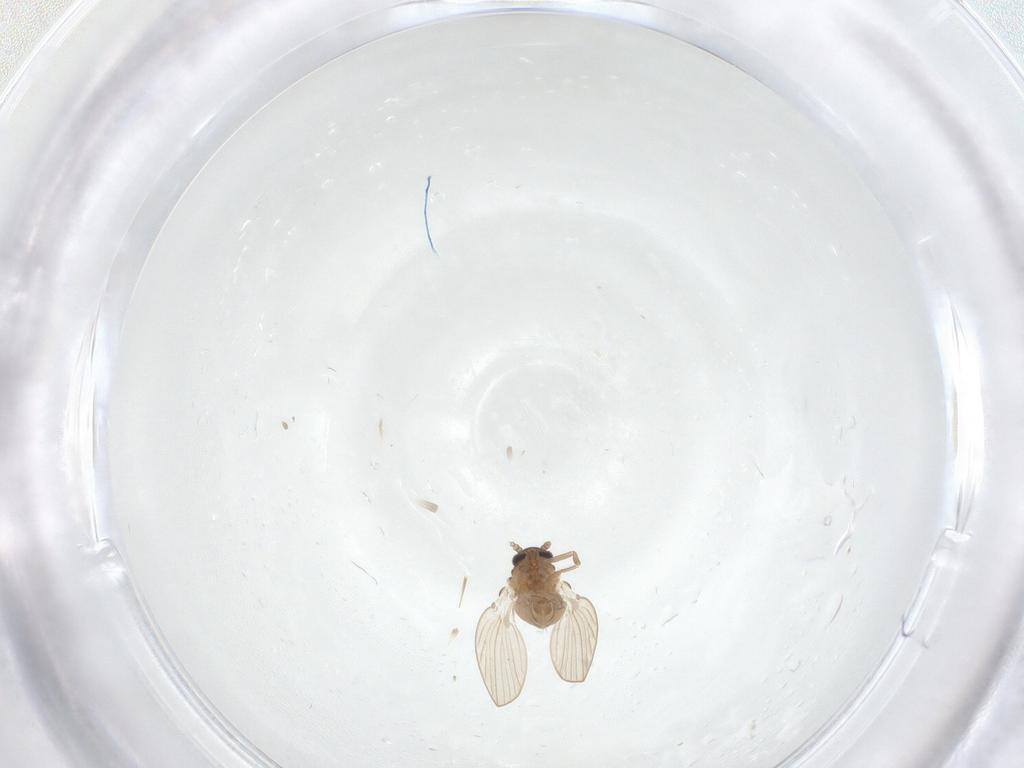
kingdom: Animalia
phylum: Arthropoda
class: Insecta
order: Diptera
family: Psychodidae
